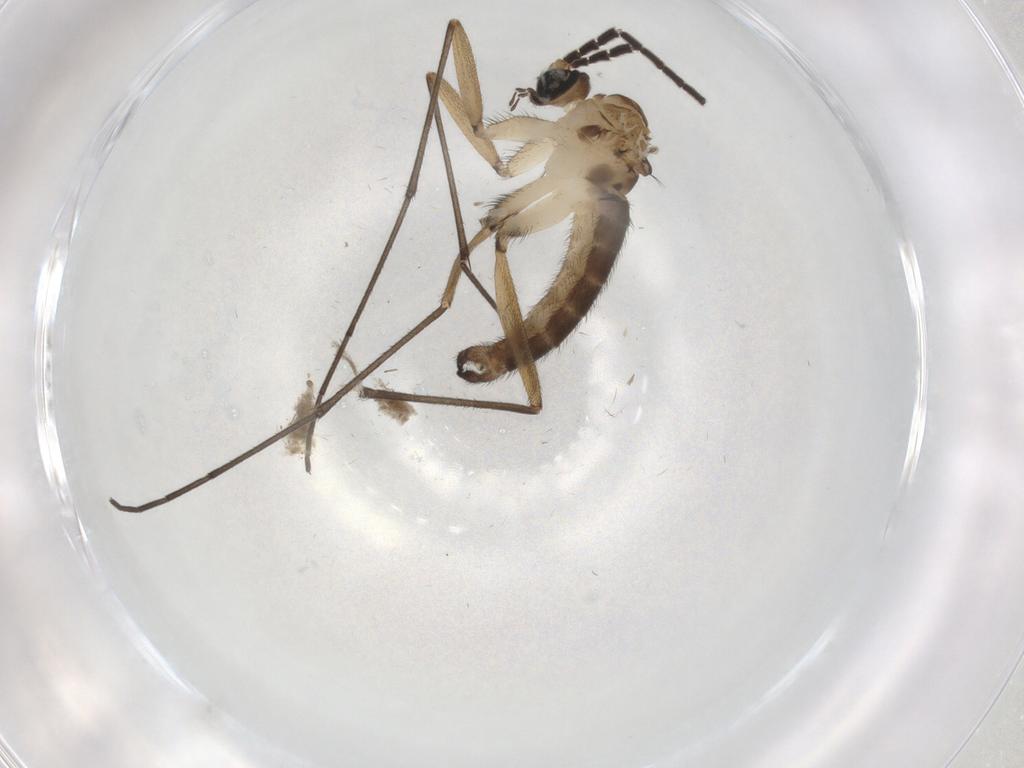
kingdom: Animalia
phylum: Arthropoda
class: Insecta
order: Diptera
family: Sciaridae
